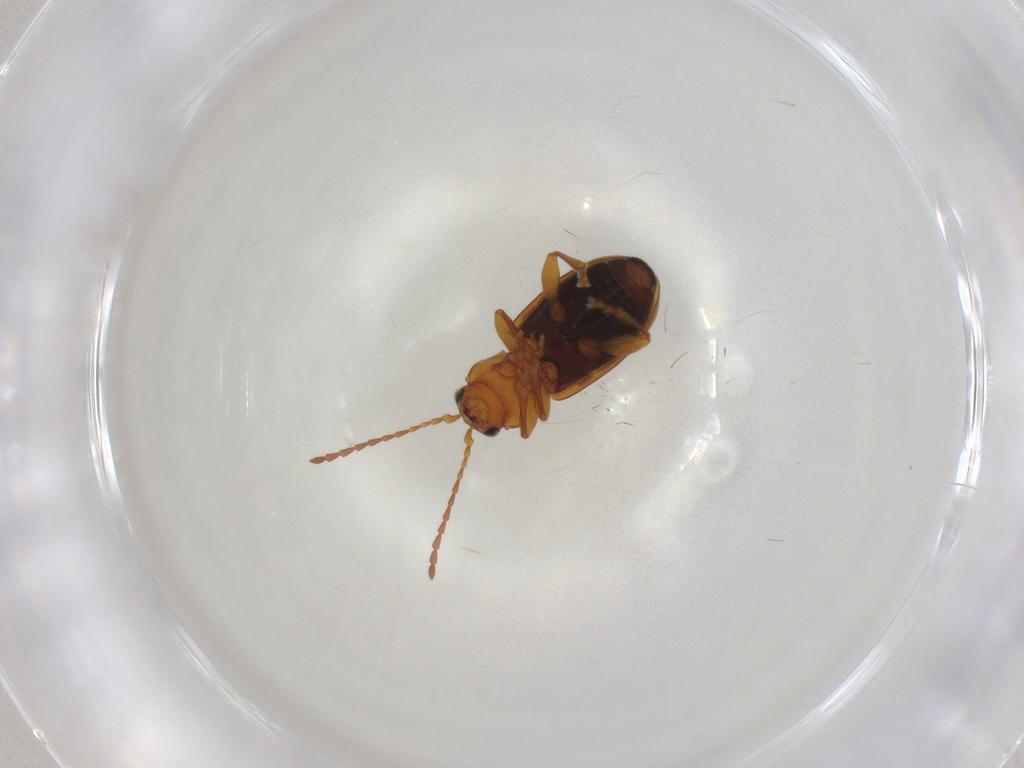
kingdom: Animalia
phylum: Arthropoda
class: Insecta
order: Coleoptera
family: Chrysomelidae
